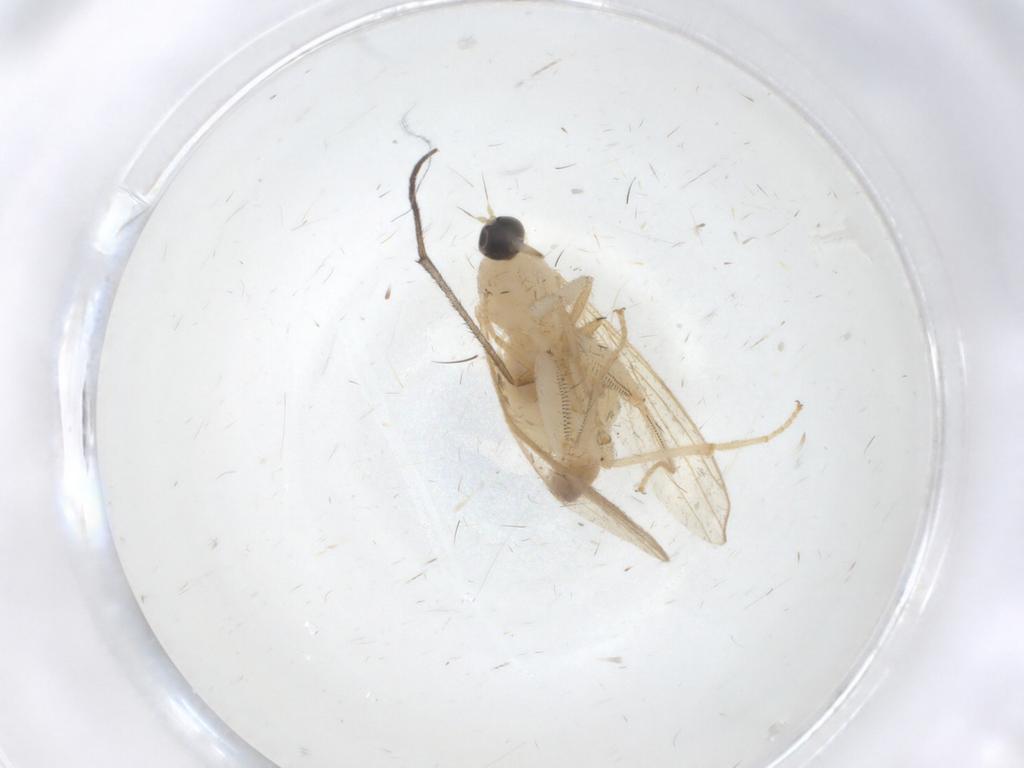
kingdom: Animalia
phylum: Arthropoda
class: Insecta
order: Diptera
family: Hybotidae
